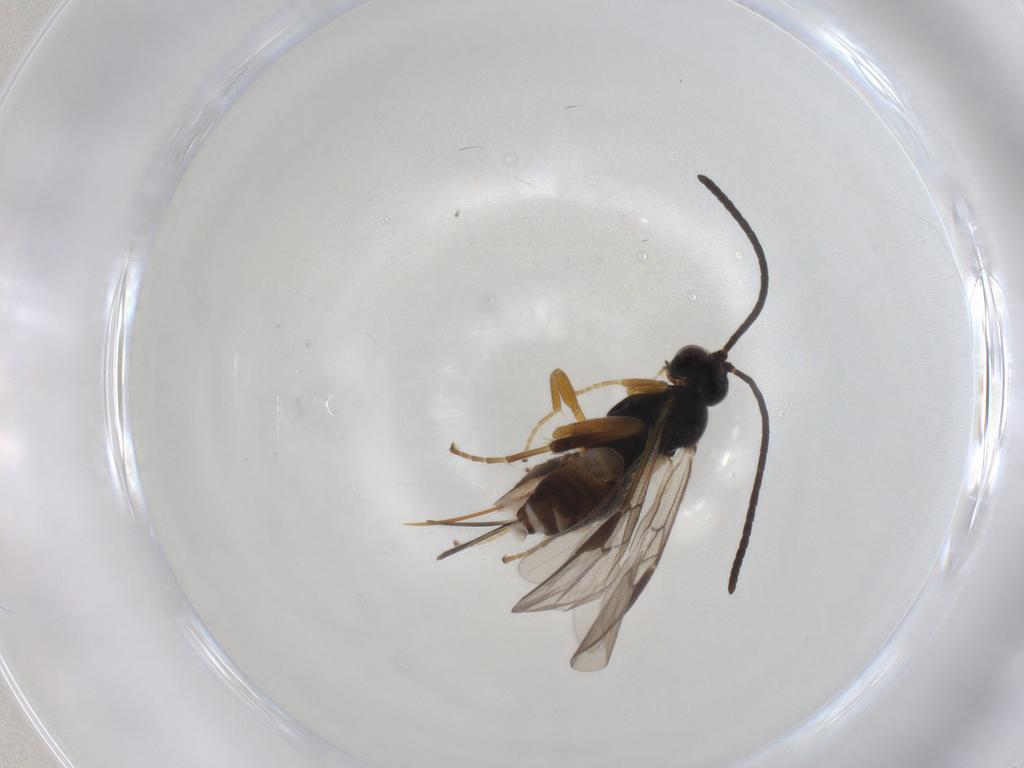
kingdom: Animalia
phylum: Arthropoda
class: Insecta
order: Hymenoptera
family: Braconidae
